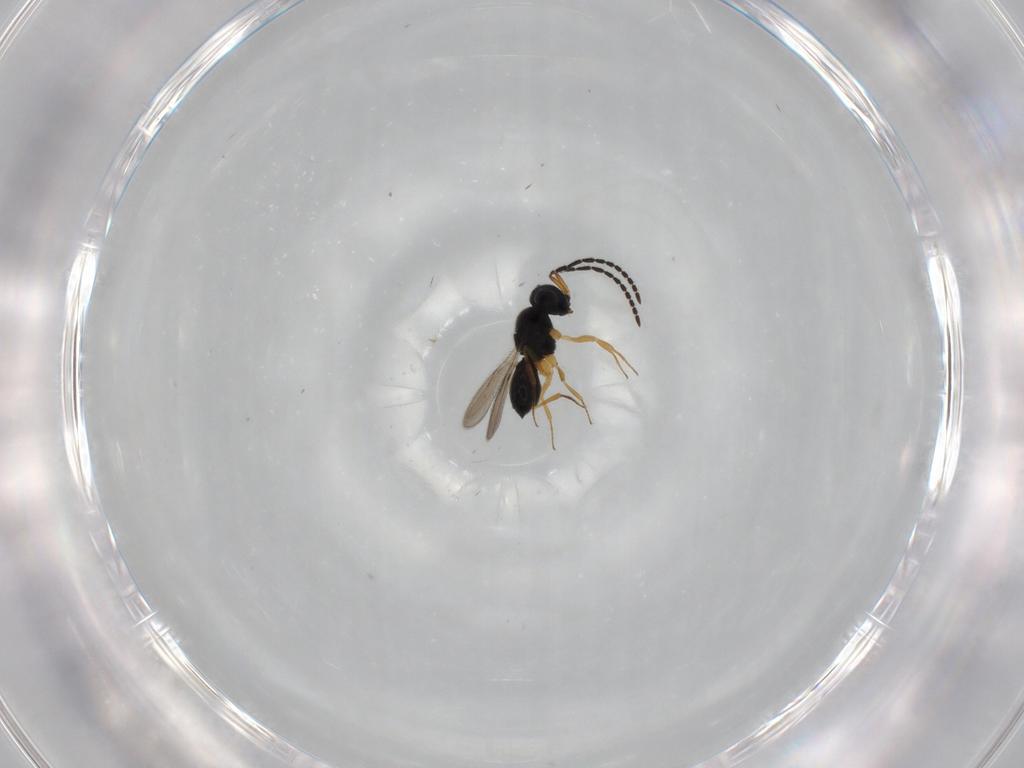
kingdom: Animalia
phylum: Arthropoda
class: Insecta
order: Hymenoptera
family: Scelionidae
